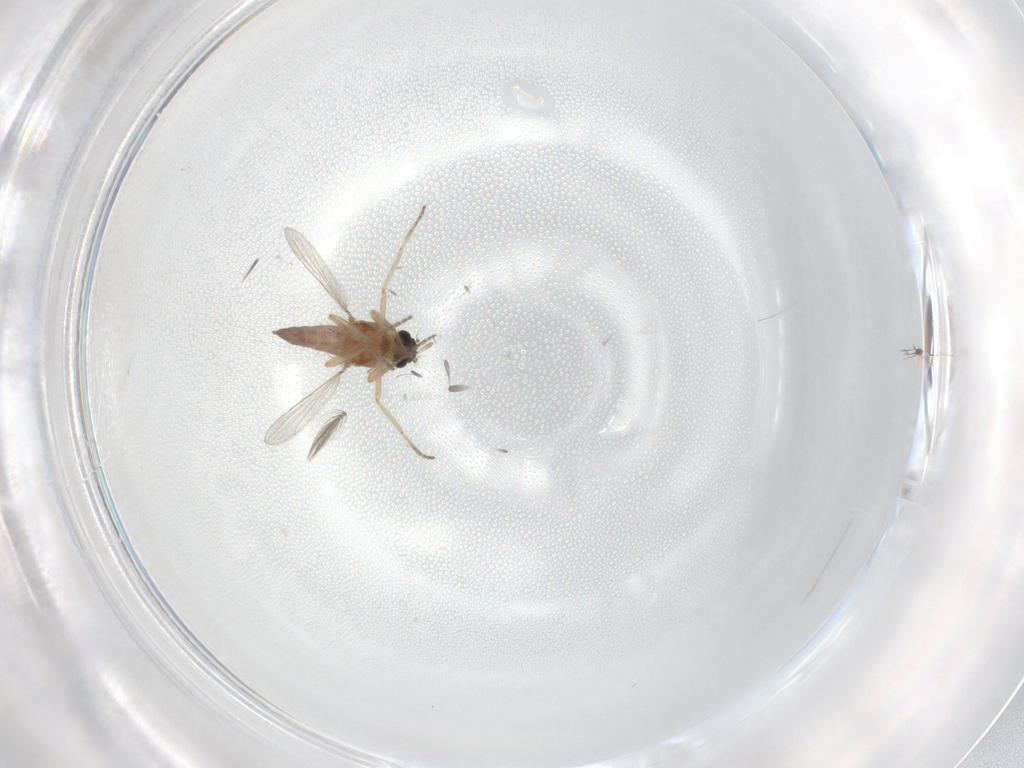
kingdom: Animalia
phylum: Arthropoda
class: Insecta
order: Diptera
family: Ceratopogonidae
